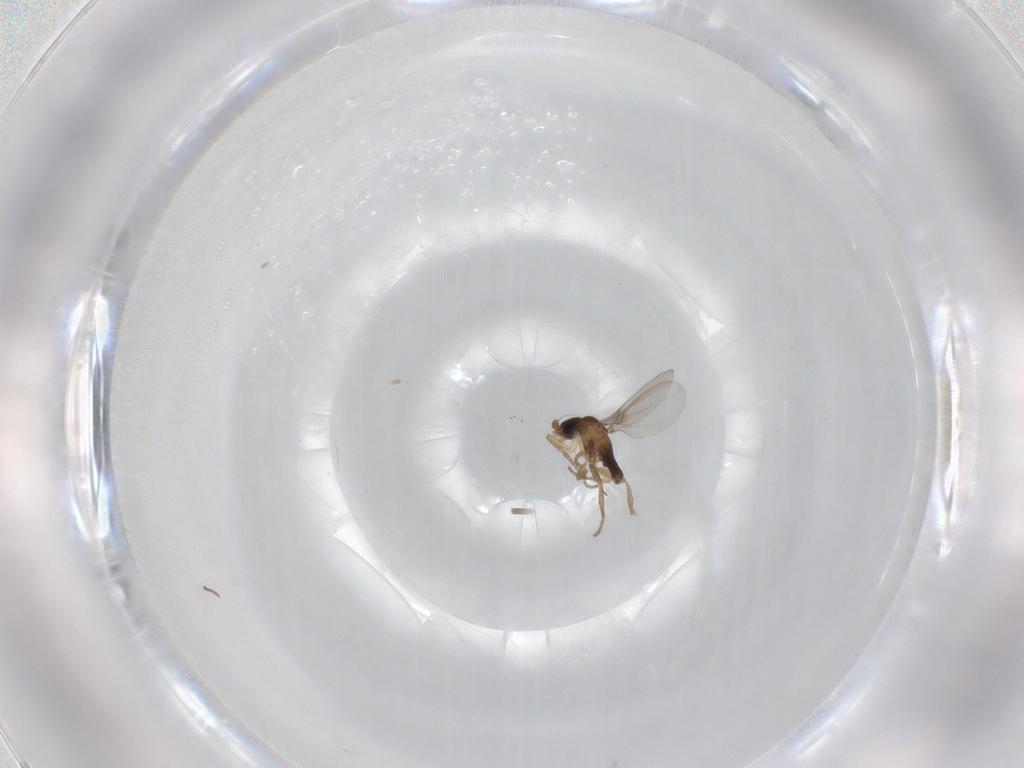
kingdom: Animalia
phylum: Arthropoda
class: Insecta
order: Diptera
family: Phoridae
